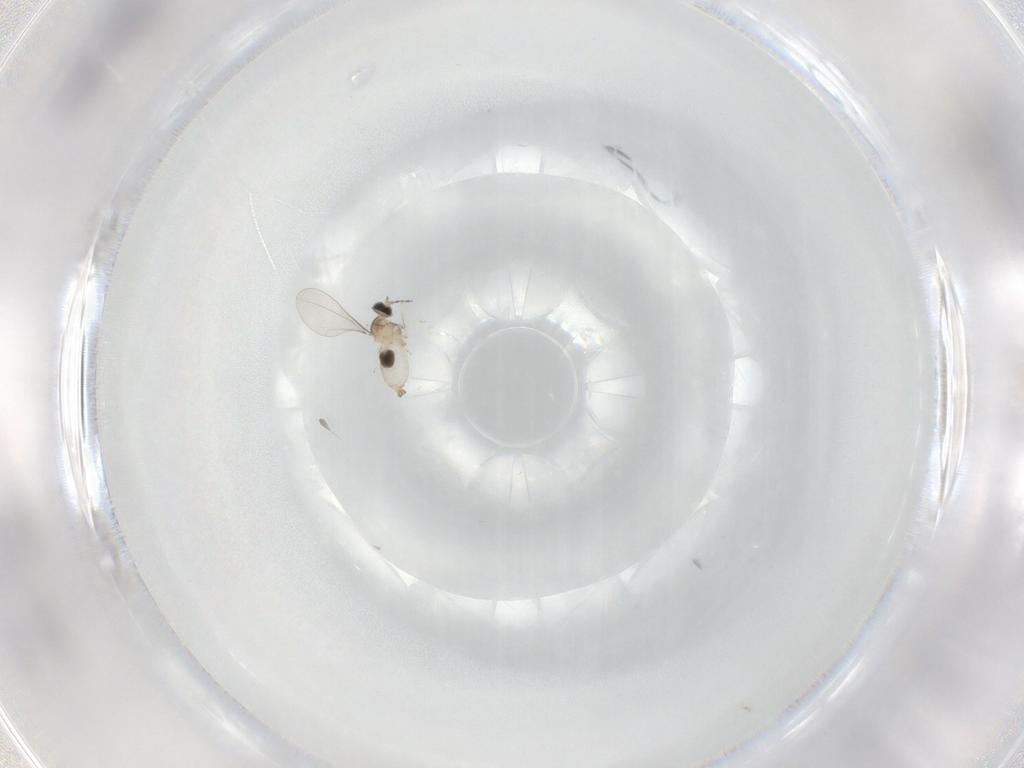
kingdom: Animalia
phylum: Arthropoda
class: Insecta
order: Diptera
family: Cecidomyiidae
